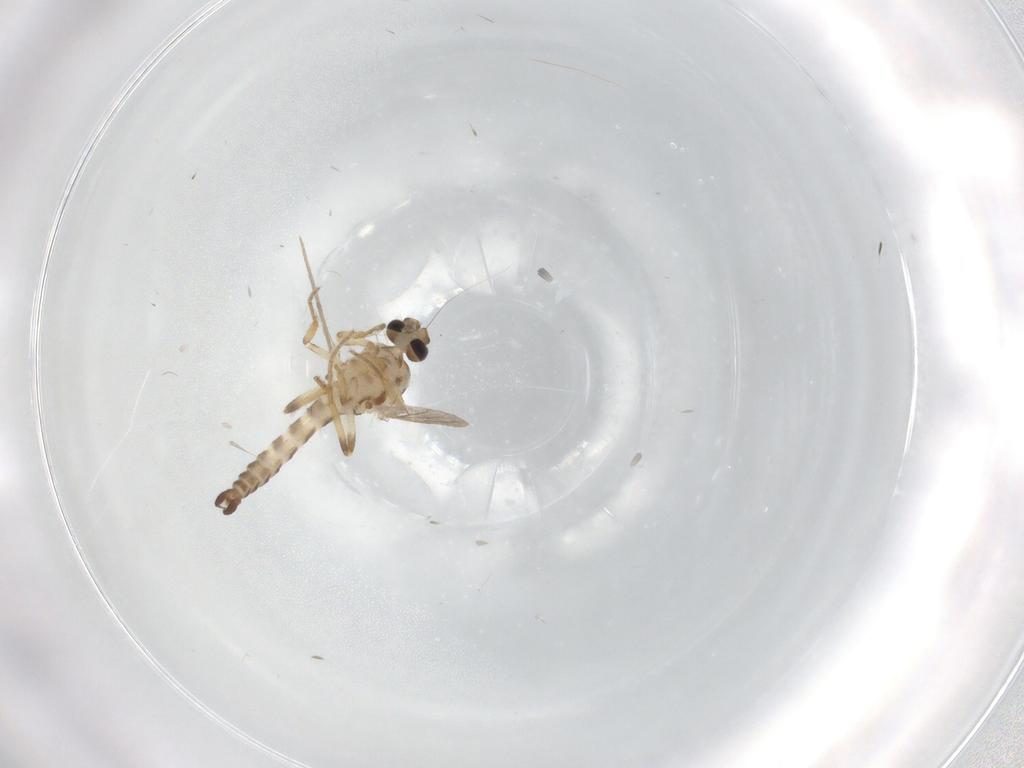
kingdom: Animalia
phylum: Arthropoda
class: Insecta
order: Diptera
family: Ceratopogonidae
